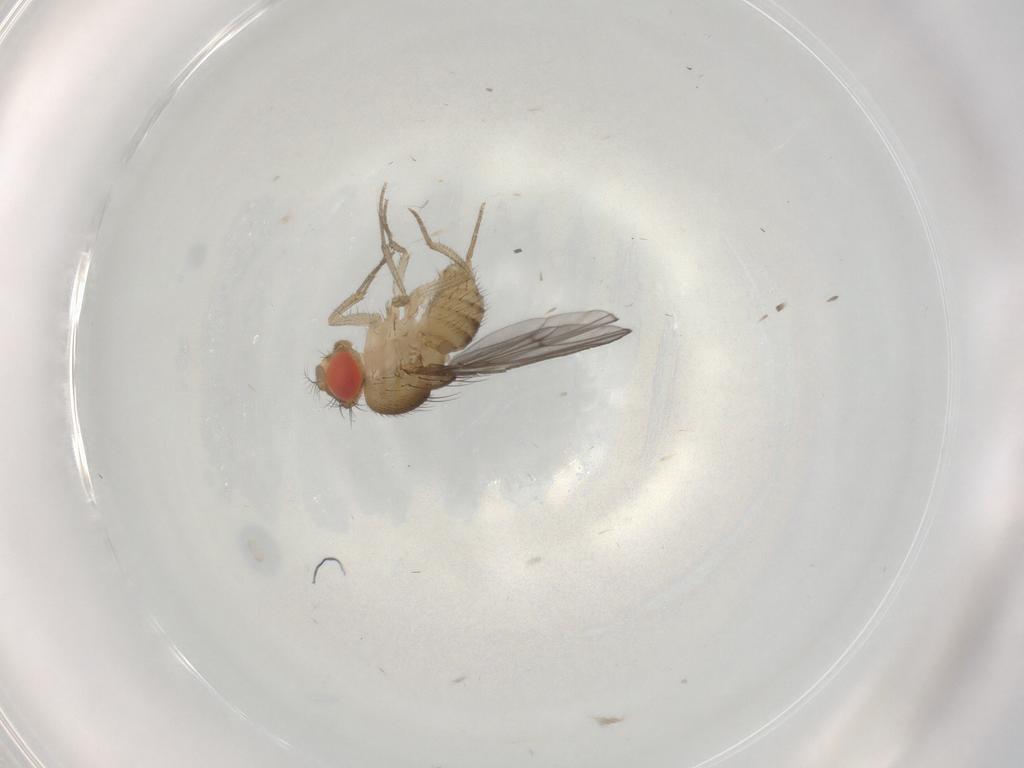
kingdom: Animalia
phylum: Arthropoda
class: Insecta
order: Diptera
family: Drosophilidae
